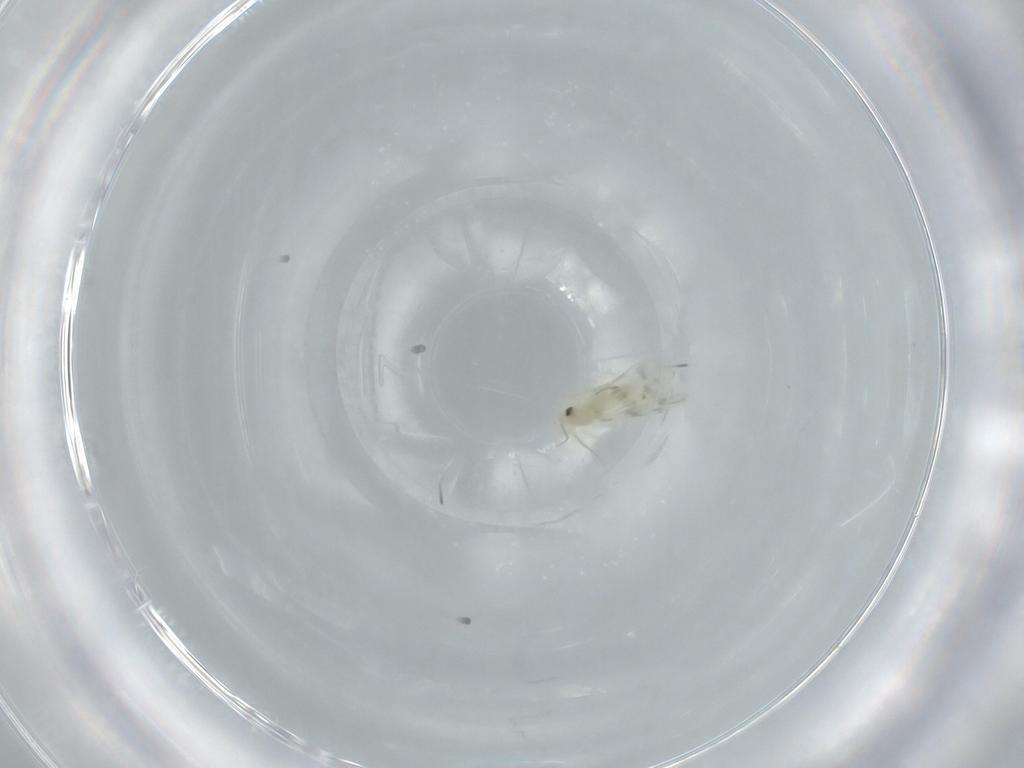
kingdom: Animalia
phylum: Arthropoda
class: Insecta
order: Hemiptera
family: Aleyrodidae
